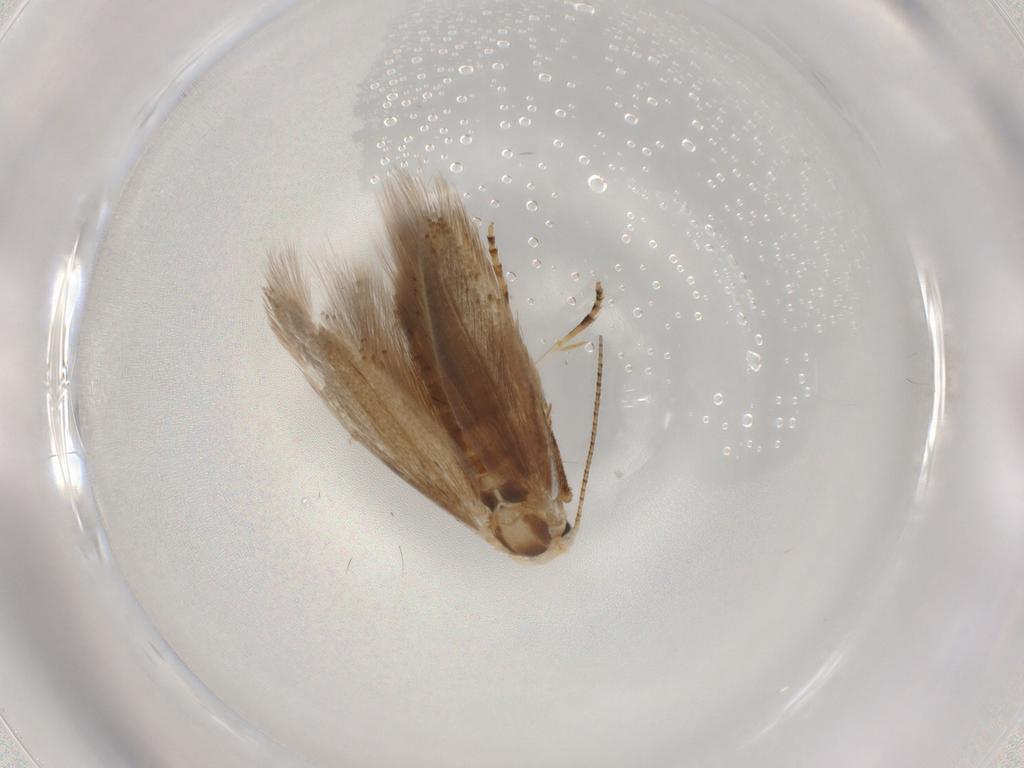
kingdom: Animalia
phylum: Arthropoda
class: Insecta
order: Lepidoptera
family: Bucculatricidae
